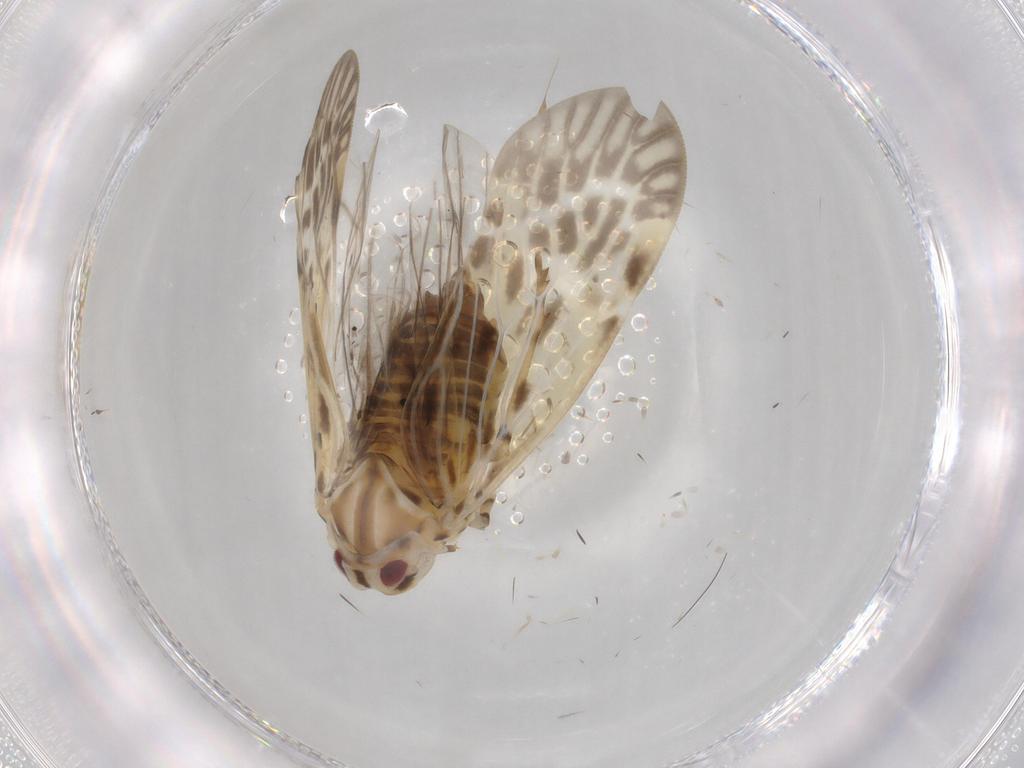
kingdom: Animalia
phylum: Arthropoda
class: Insecta
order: Hemiptera
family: Derbidae
